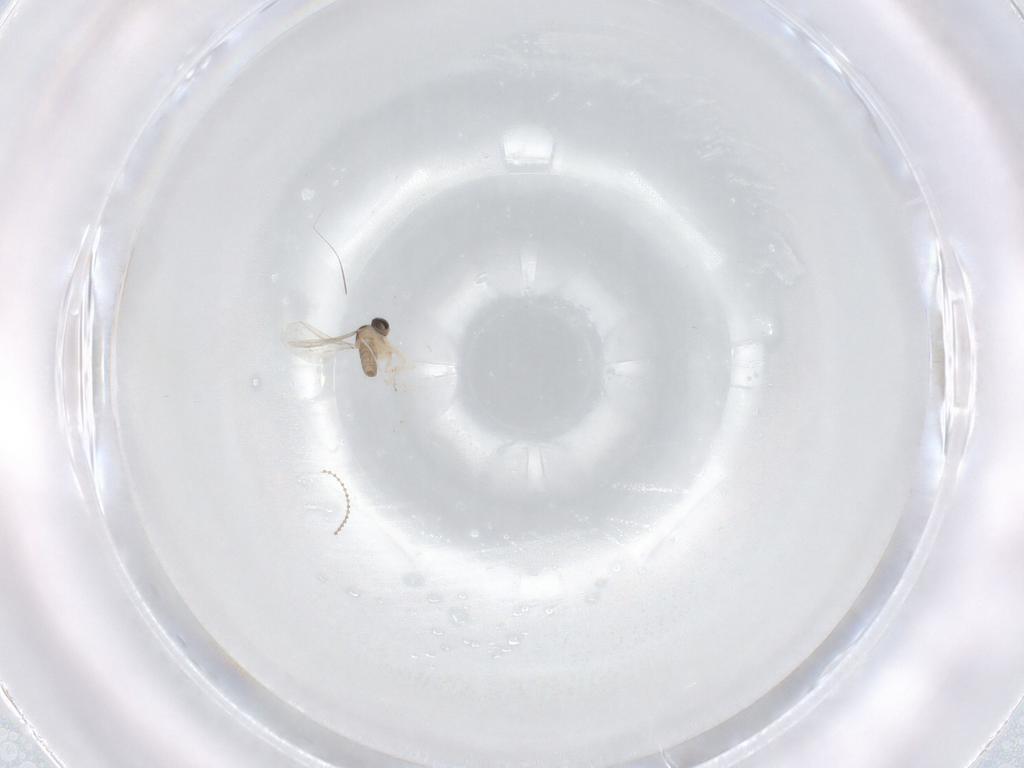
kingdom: Animalia
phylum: Arthropoda
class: Insecta
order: Diptera
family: Cecidomyiidae
